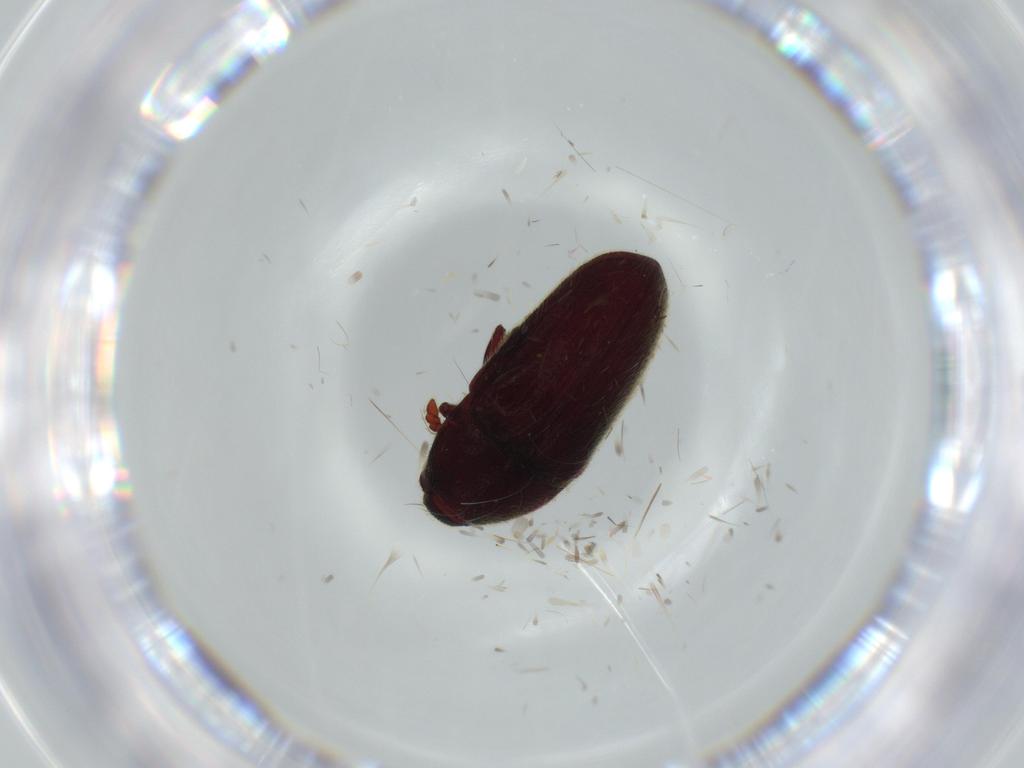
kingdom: Animalia
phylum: Arthropoda
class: Insecta
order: Coleoptera
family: Throscidae
